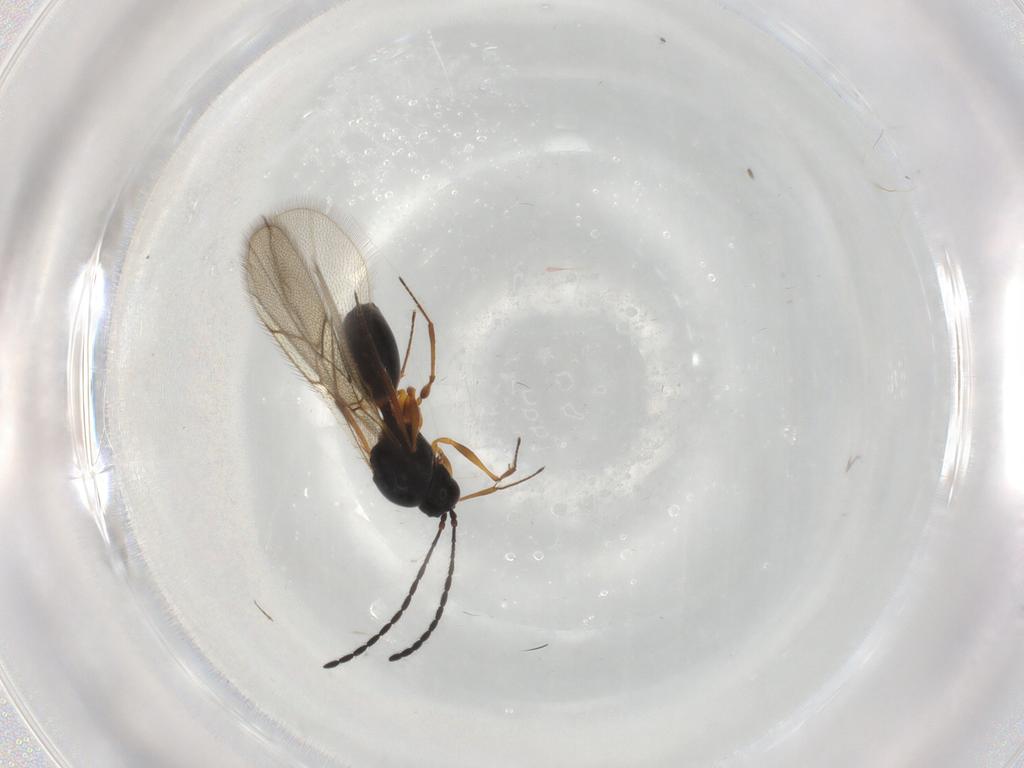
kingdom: Animalia
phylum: Arthropoda
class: Insecta
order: Hymenoptera
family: Figitidae
